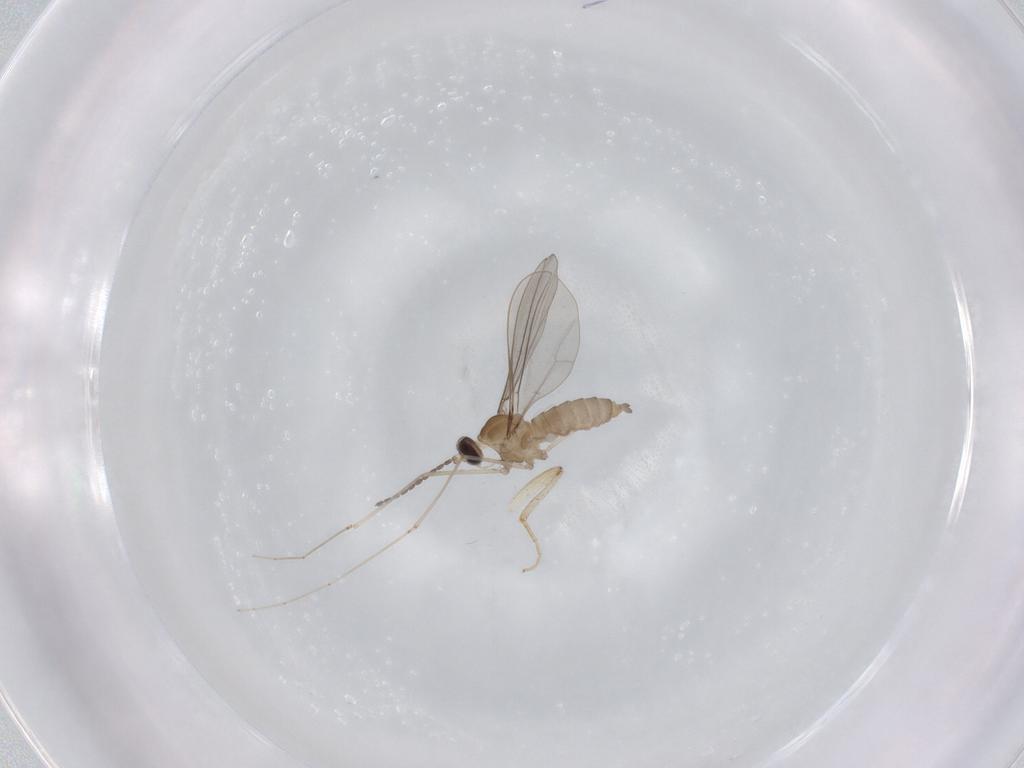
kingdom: Animalia
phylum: Arthropoda
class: Insecta
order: Diptera
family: Cecidomyiidae
